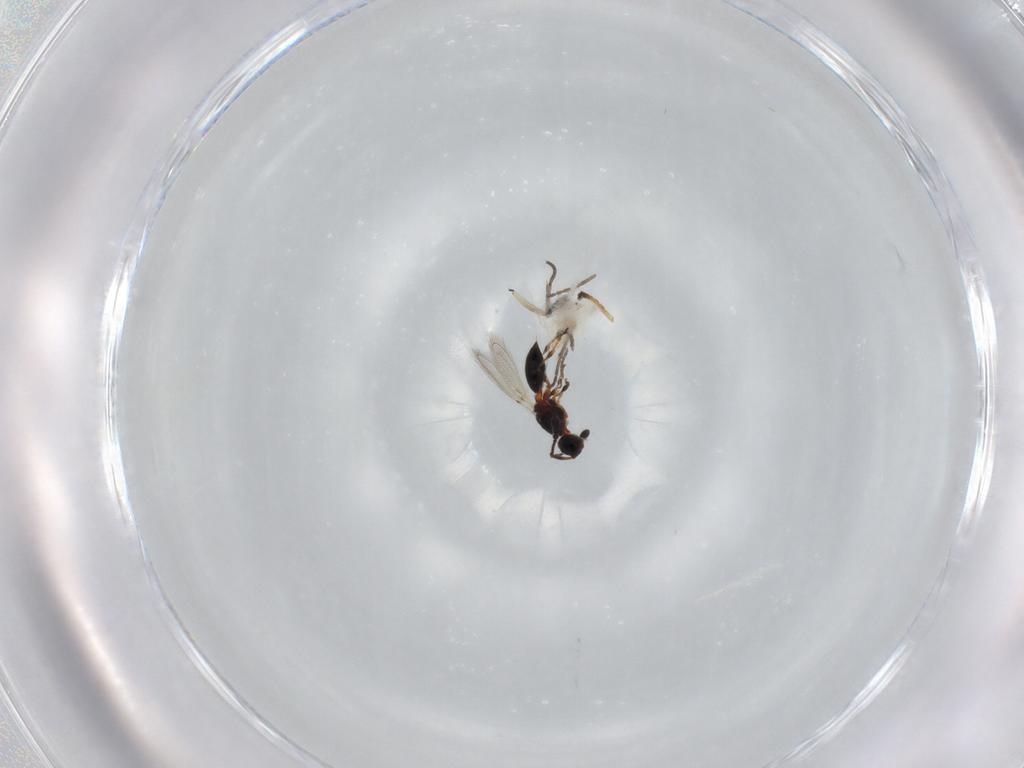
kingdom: Animalia
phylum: Arthropoda
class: Insecta
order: Hymenoptera
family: Diapriidae
